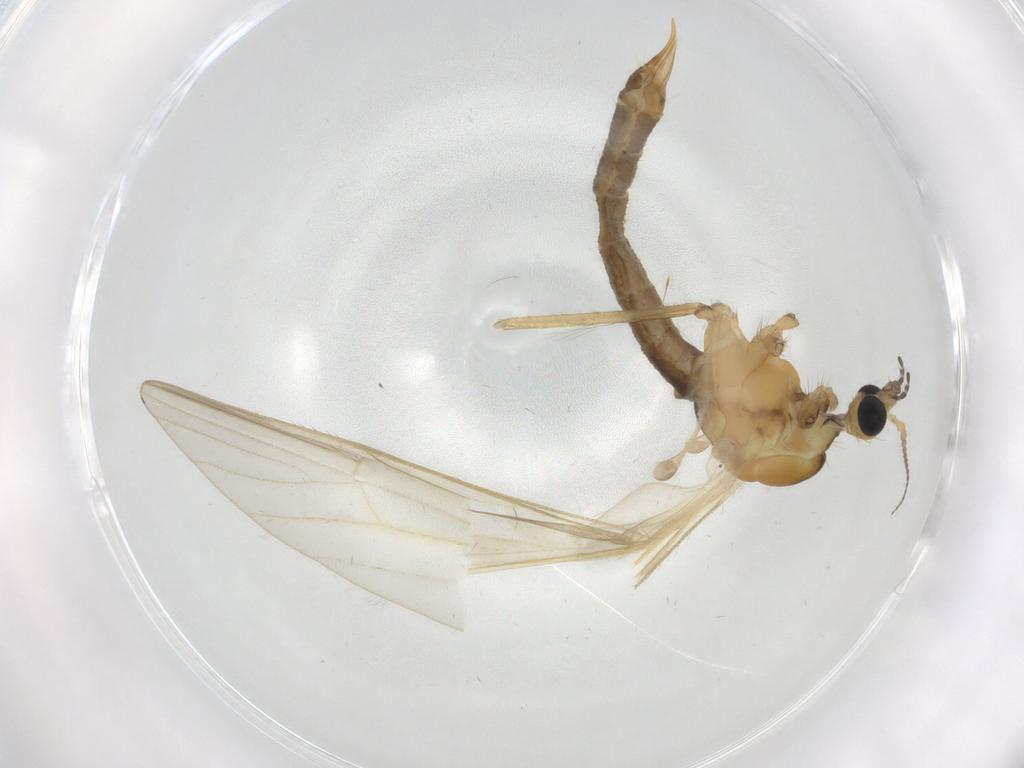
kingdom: Animalia
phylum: Arthropoda
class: Insecta
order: Diptera
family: Phoridae
